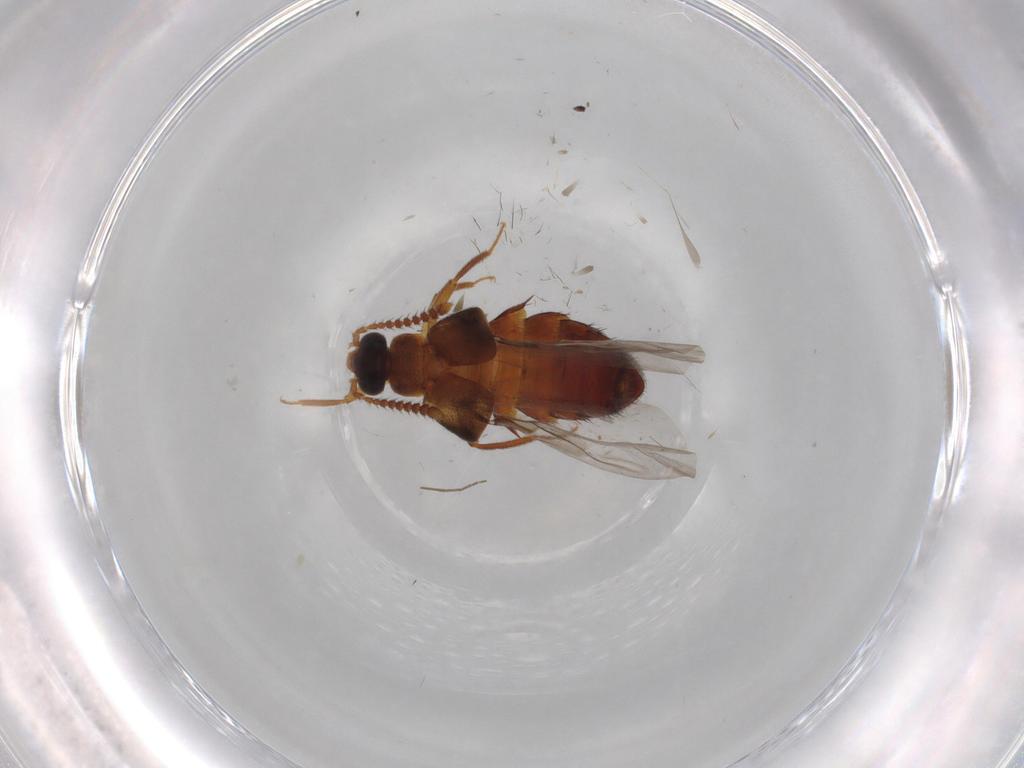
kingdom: Animalia
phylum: Arthropoda
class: Insecta
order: Coleoptera
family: Staphylinidae
